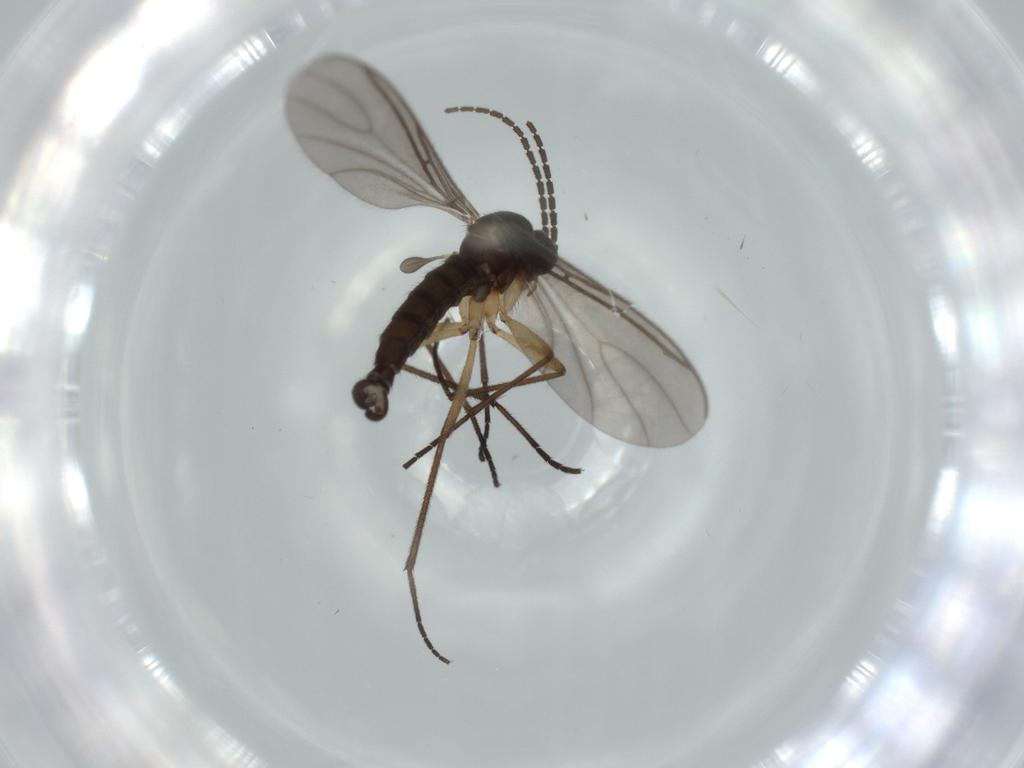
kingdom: Animalia
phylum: Arthropoda
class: Insecta
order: Diptera
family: Sciaridae
